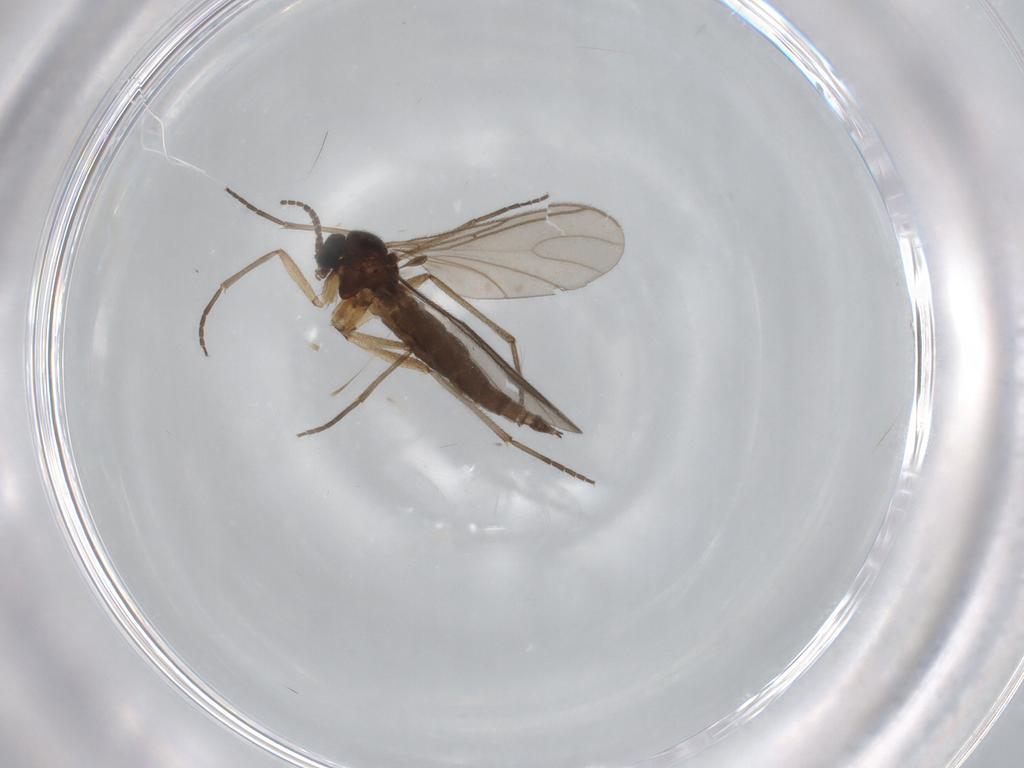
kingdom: Animalia
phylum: Arthropoda
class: Insecta
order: Diptera
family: Sciaridae
